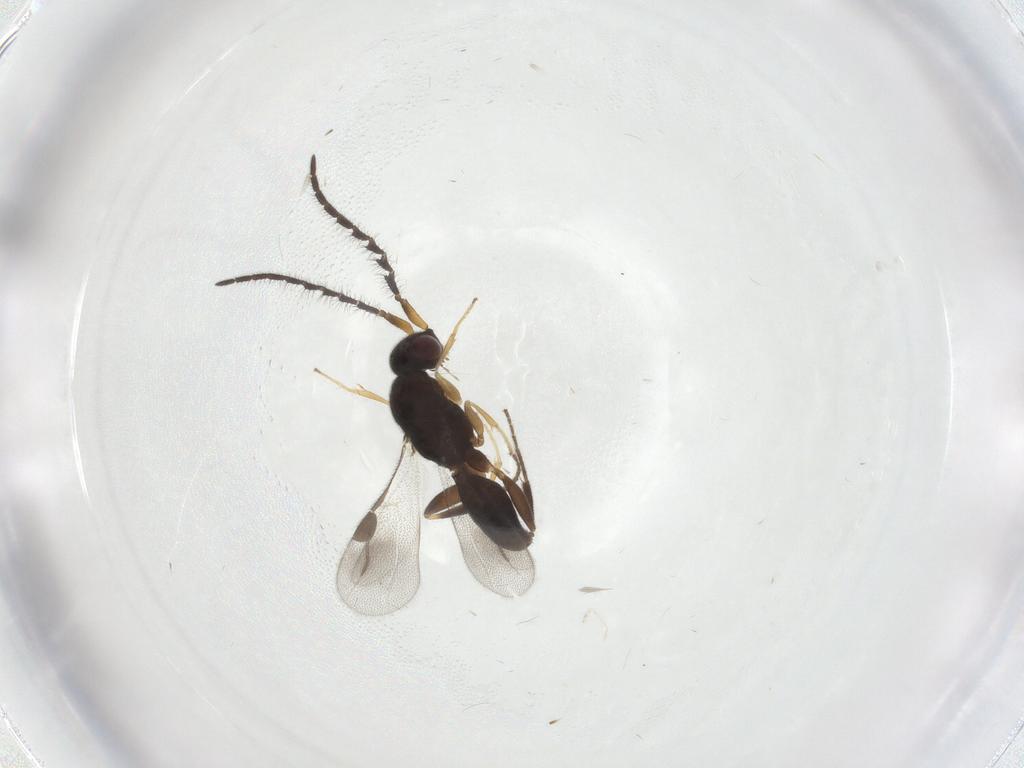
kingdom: Animalia
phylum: Arthropoda
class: Insecta
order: Hymenoptera
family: Megaspilidae
